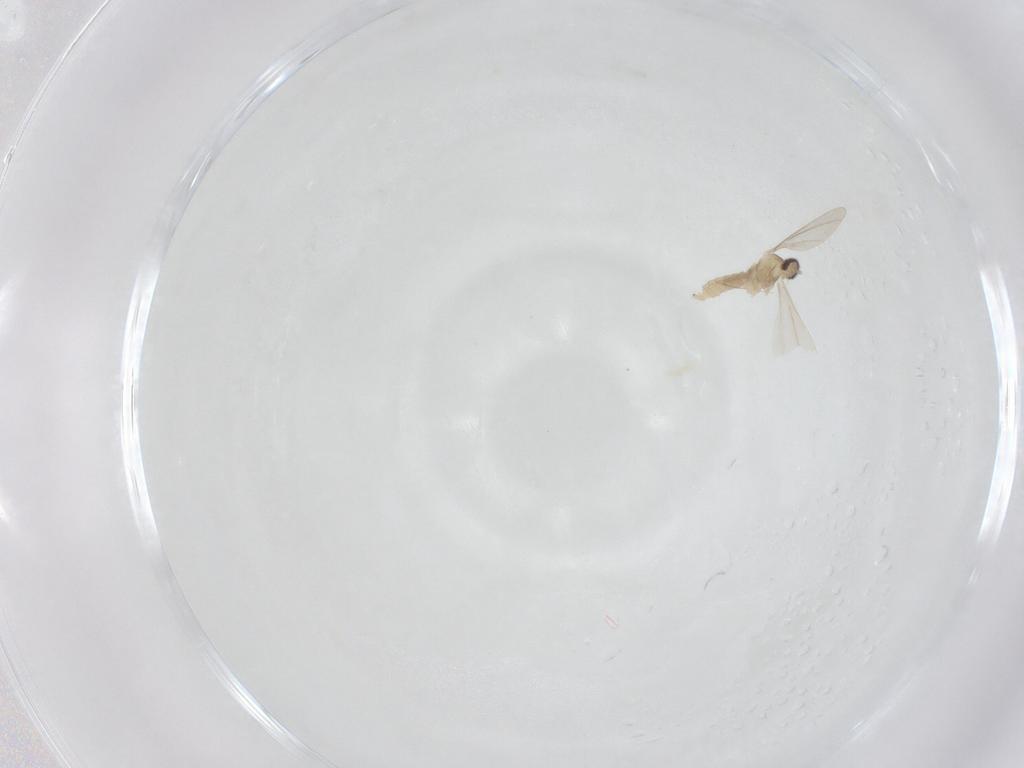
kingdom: Animalia
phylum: Arthropoda
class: Insecta
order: Diptera
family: Cecidomyiidae
